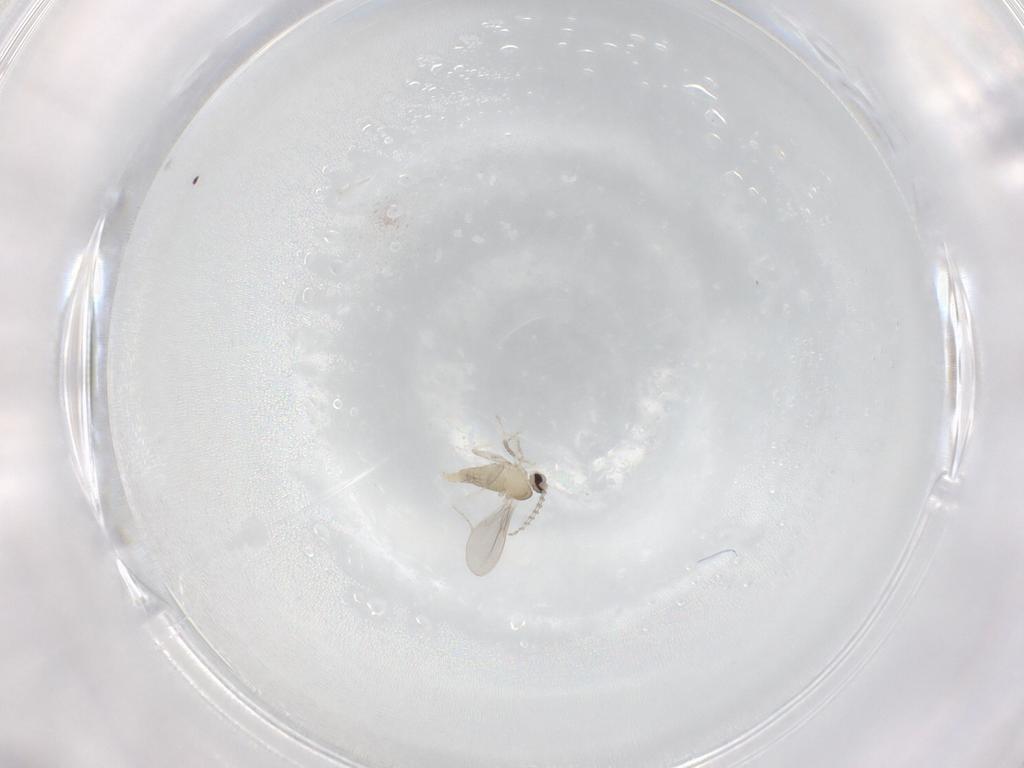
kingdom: Animalia
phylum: Arthropoda
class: Insecta
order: Diptera
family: Cecidomyiidae
